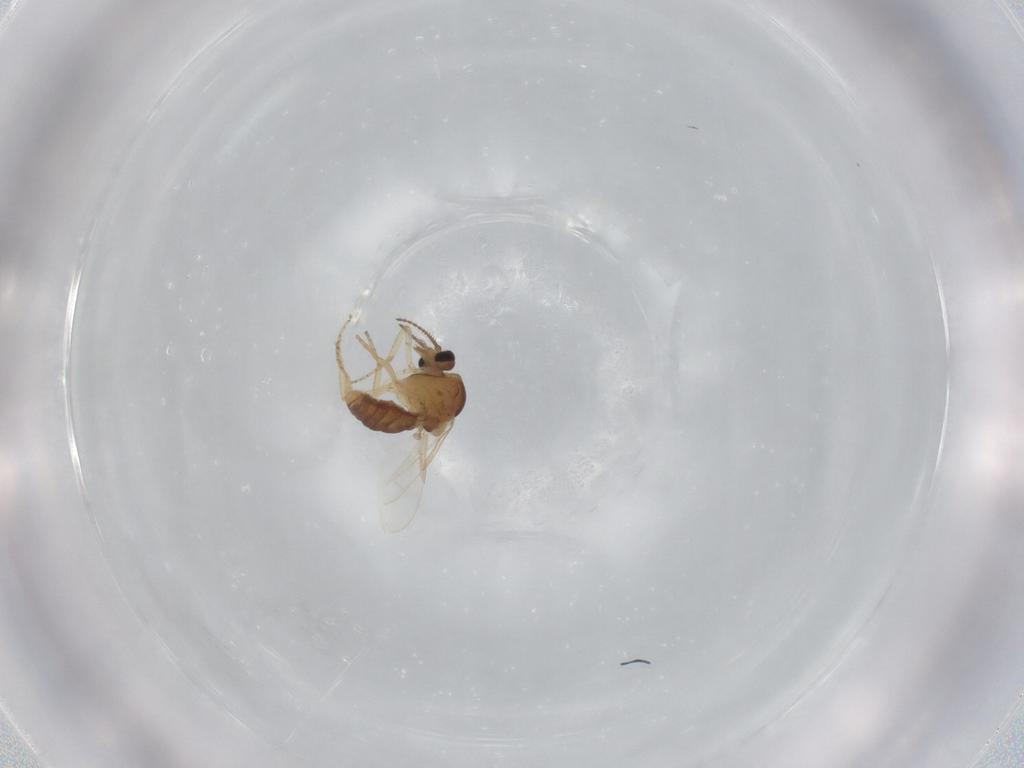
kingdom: Animalia
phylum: Arthropoda
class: Insecta
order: Diptera
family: Ceratopogonidae
